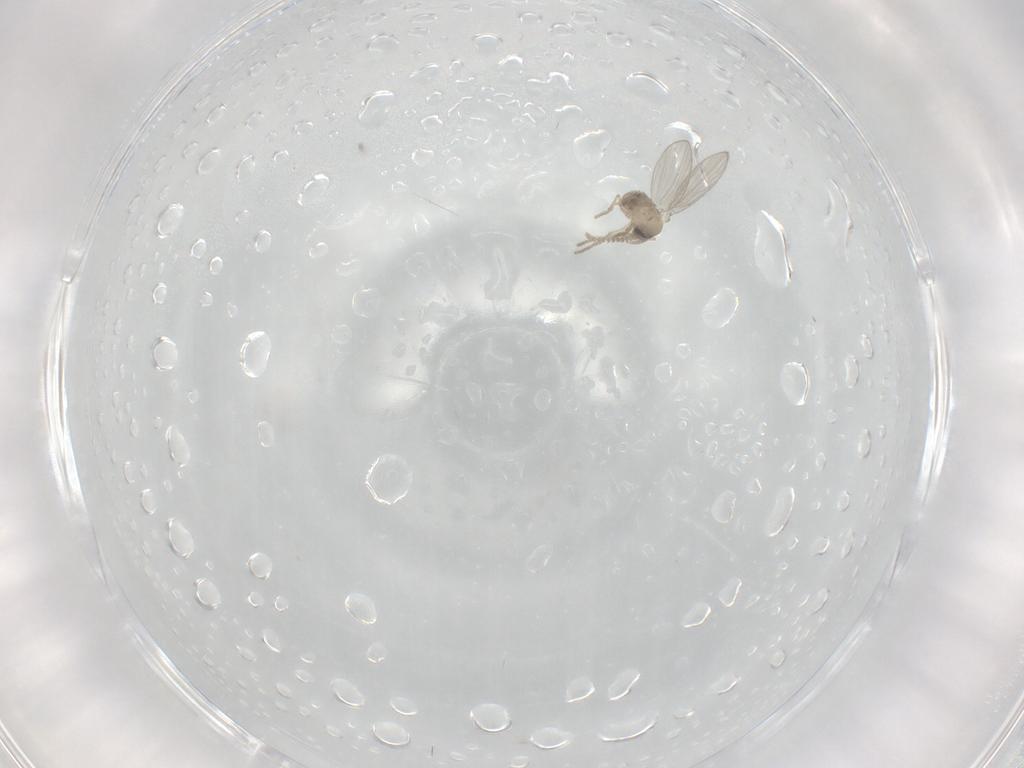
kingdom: Animalia
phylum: Arthropoda
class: Insecta
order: Diptera
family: Psychodidae
